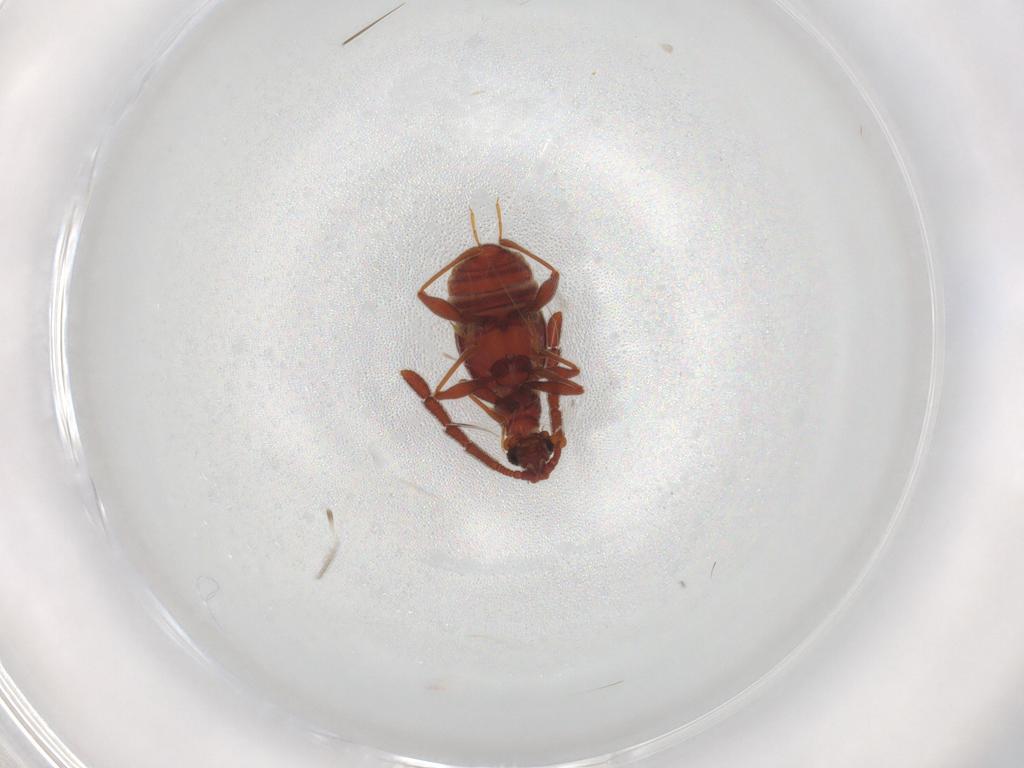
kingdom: Animalia
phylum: Arthropoda
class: Insecta
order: Coleoptera
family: Staphylinidae
